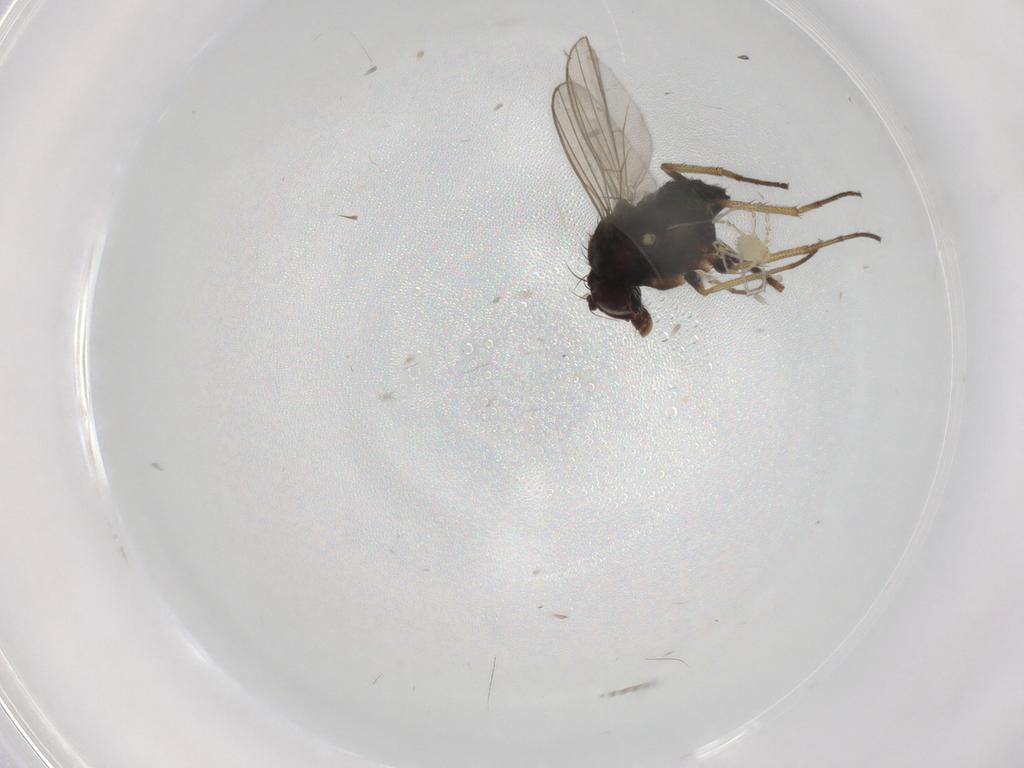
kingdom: Animalia
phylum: Arthropoda
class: Insecta
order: Diptera
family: Dolichopodidae
